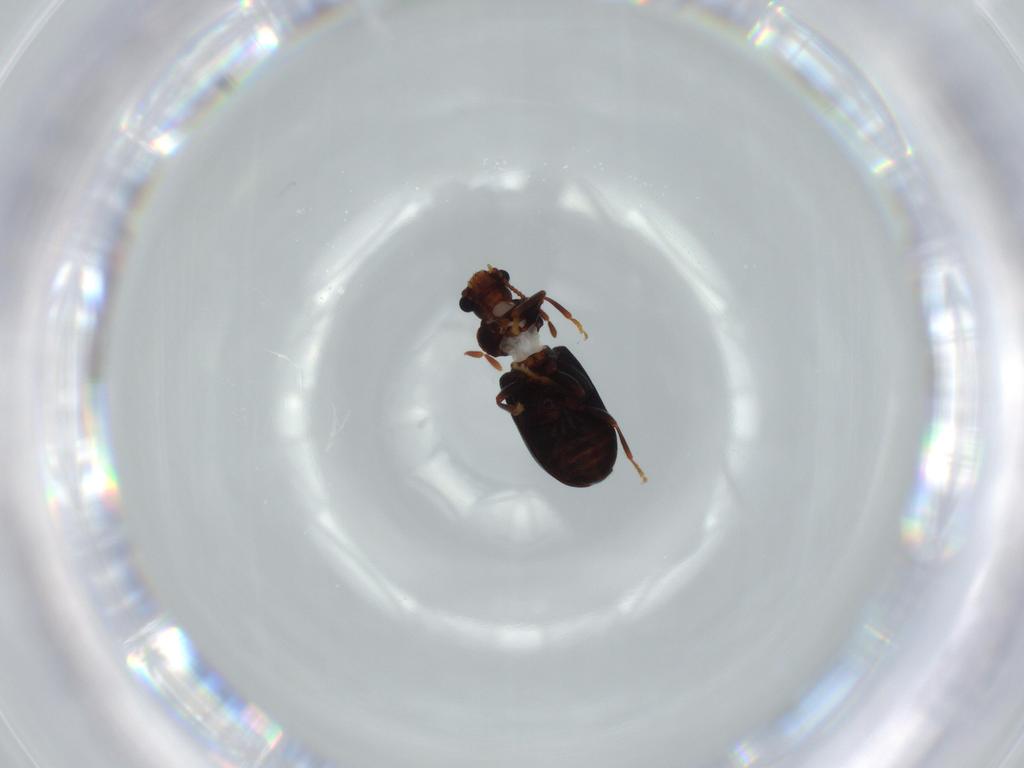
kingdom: Animalia
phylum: Arthropoda
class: Insecta
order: Coleoptera
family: Ptinidae
